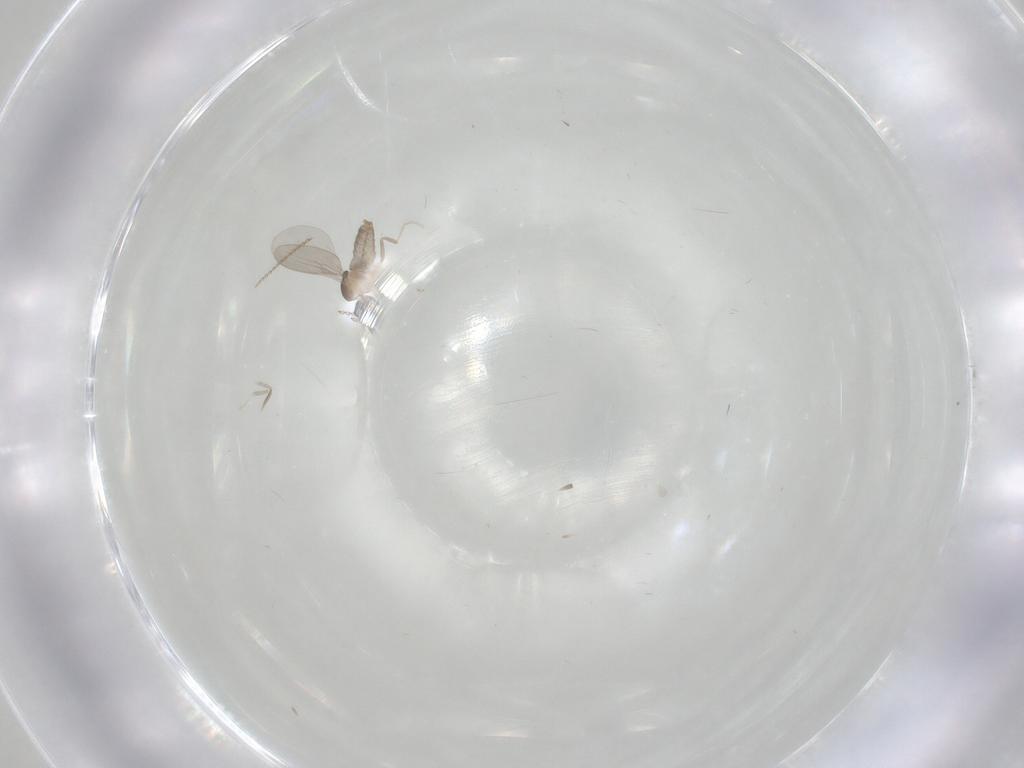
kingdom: Animalia
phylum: Arthropoda
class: Insecta
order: Diptera
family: Cecidomyiidae
